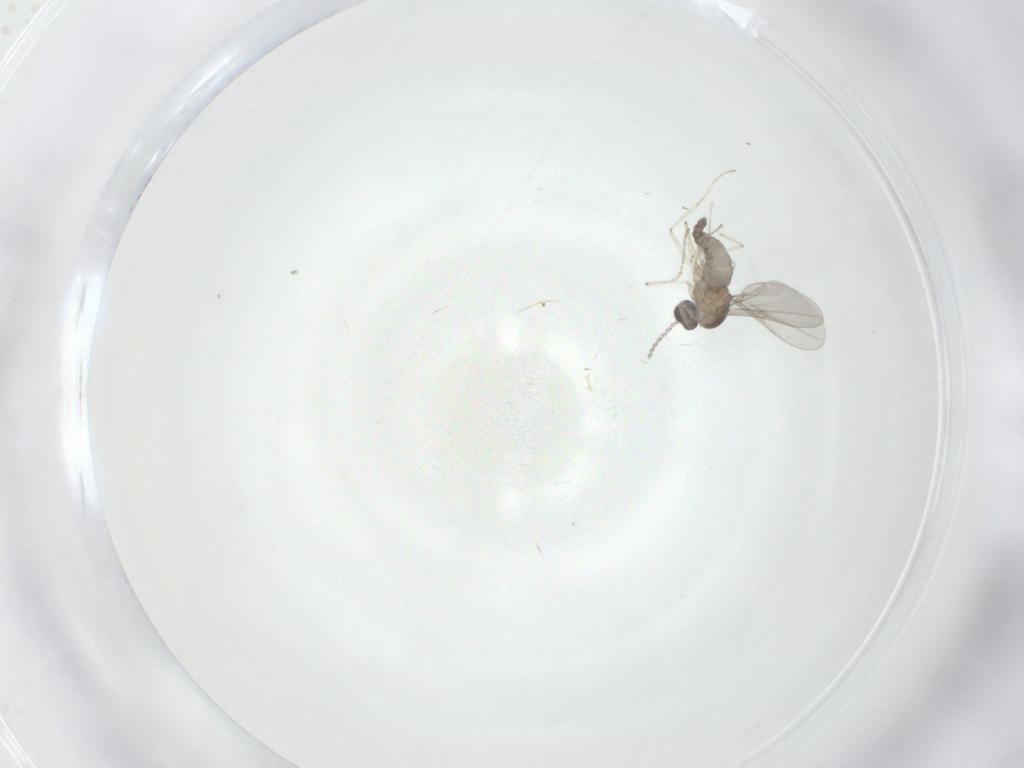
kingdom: Animalia
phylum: Arthropoda
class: Insecta
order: Diptera
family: Cecidomyiidae
